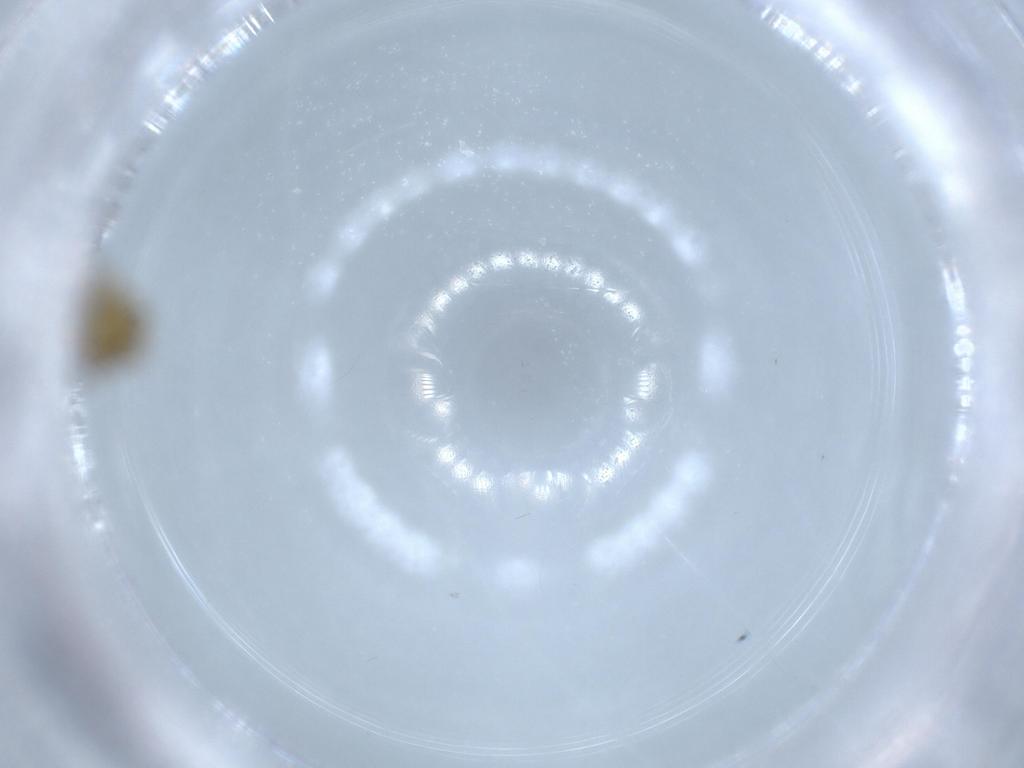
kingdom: Animalia
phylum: Arthropoda
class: Insecta
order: Diptera
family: Chironomidae
